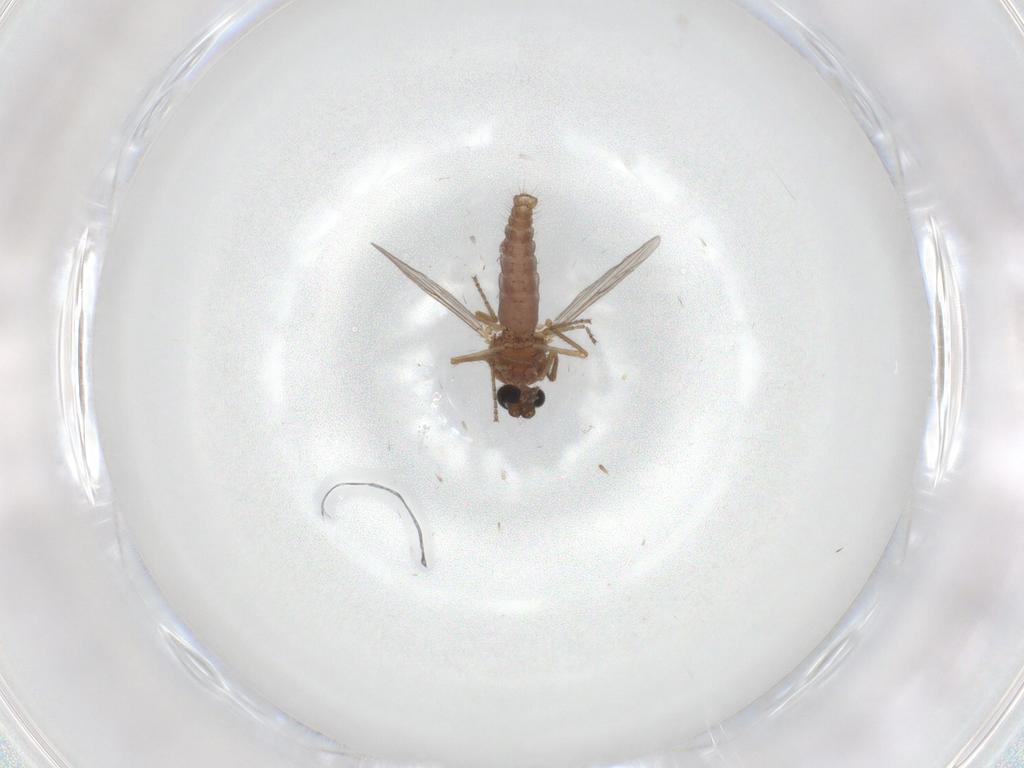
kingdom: Animalia
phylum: Arthropoda
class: Insecta
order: Diptera
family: Ceratopogonidae
